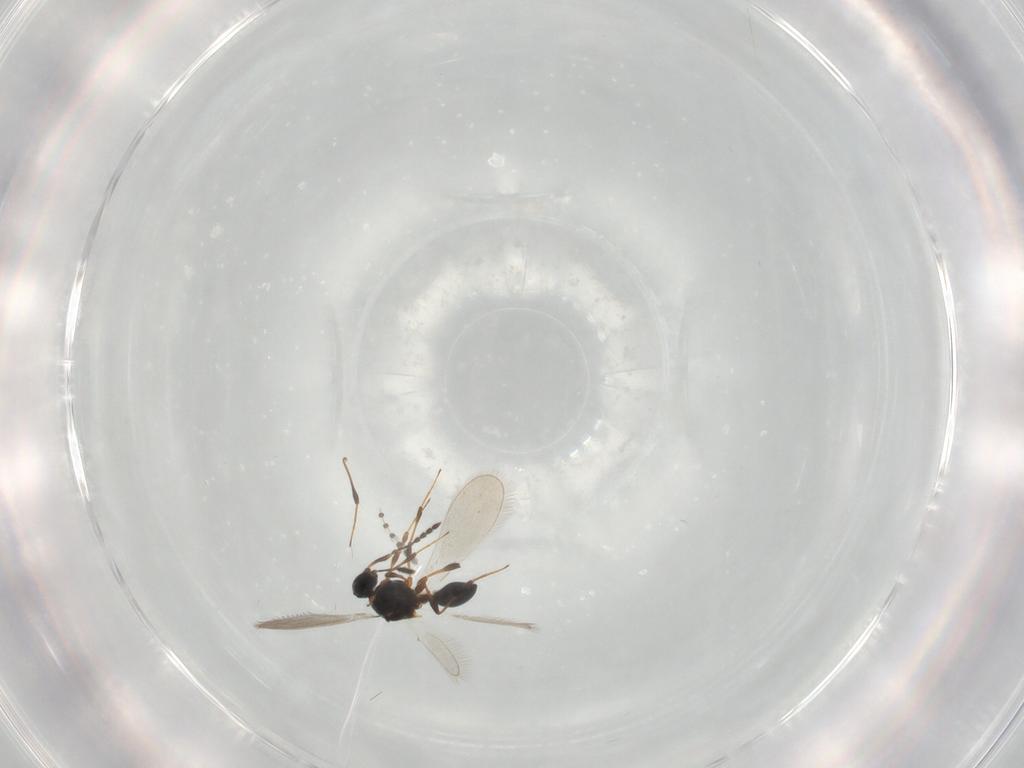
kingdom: Animalia
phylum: Arthropoda
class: Insecta
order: Hymenoptera
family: Platygastridae
